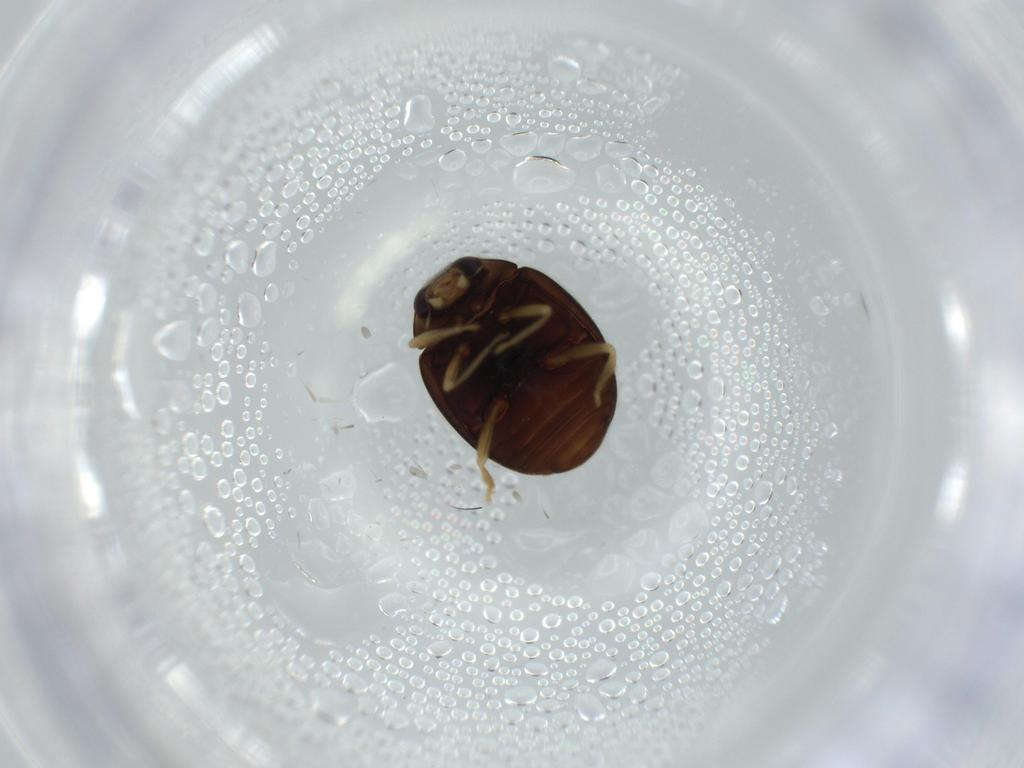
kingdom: Animalia
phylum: Arthropoda
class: Insecta
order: Coleoptera
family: Coccinellidae
